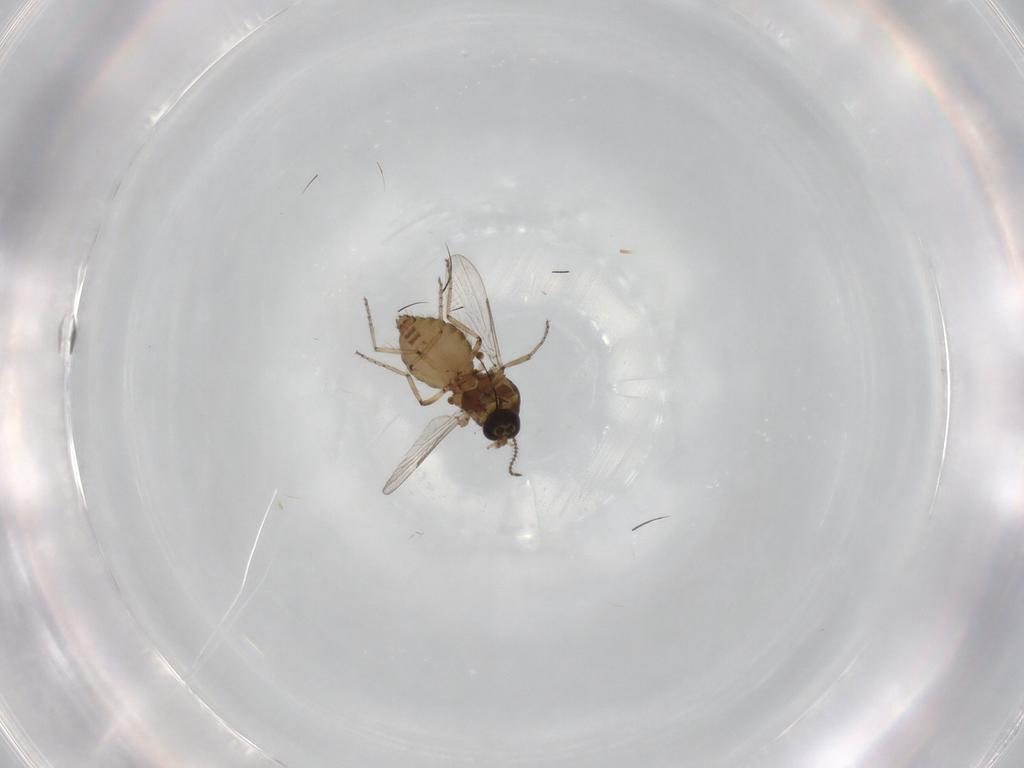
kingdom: Animalia
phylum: Arthropoda
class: Insecta
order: Diptera
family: Ceratopogonidae
